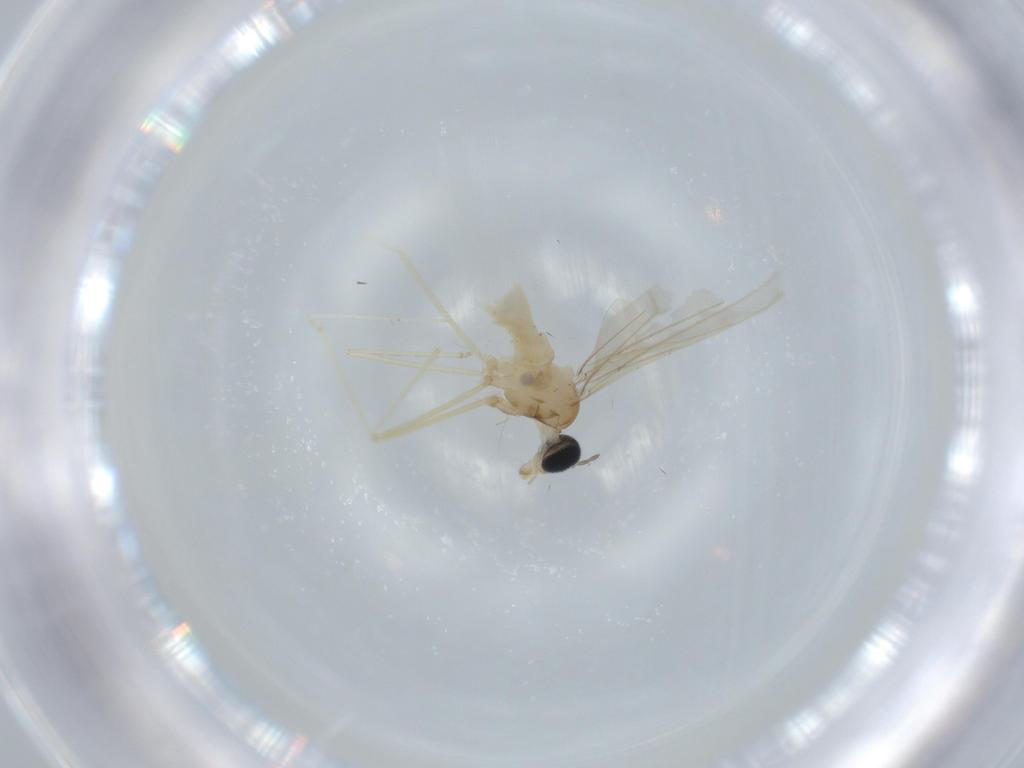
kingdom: Animalia
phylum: Arthropoda
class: Insecta
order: Diptera
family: Cecidomyiidae
